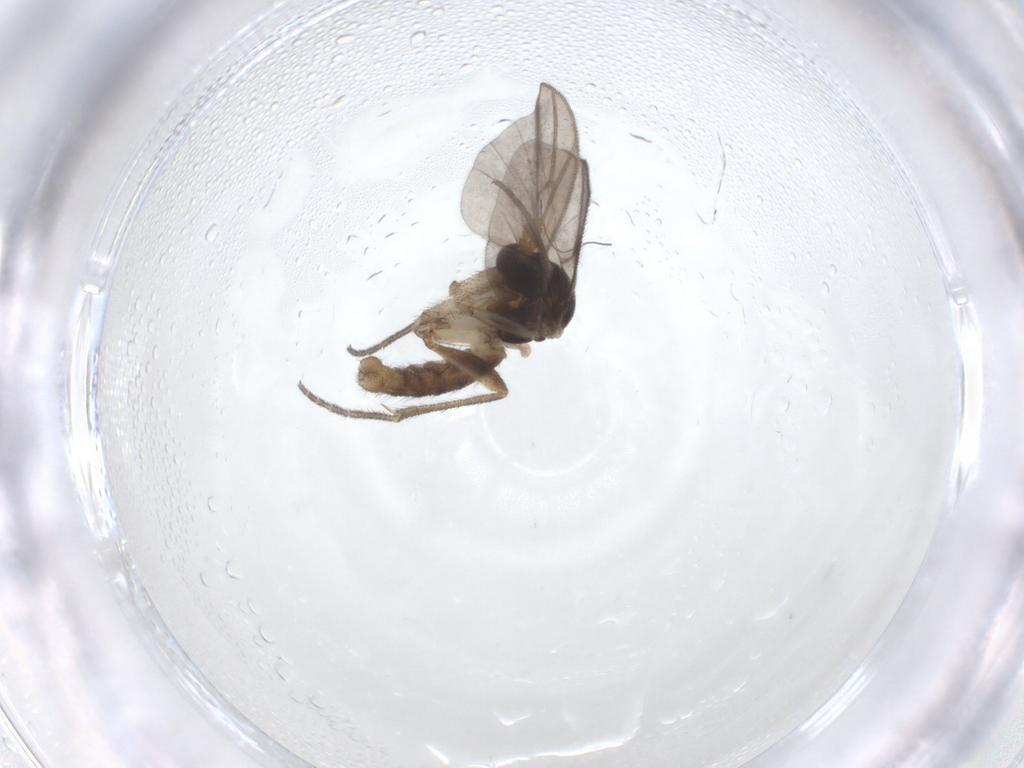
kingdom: Animalia
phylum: Arthropoda
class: Insecta
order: Diptera
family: Mycetophilidae
